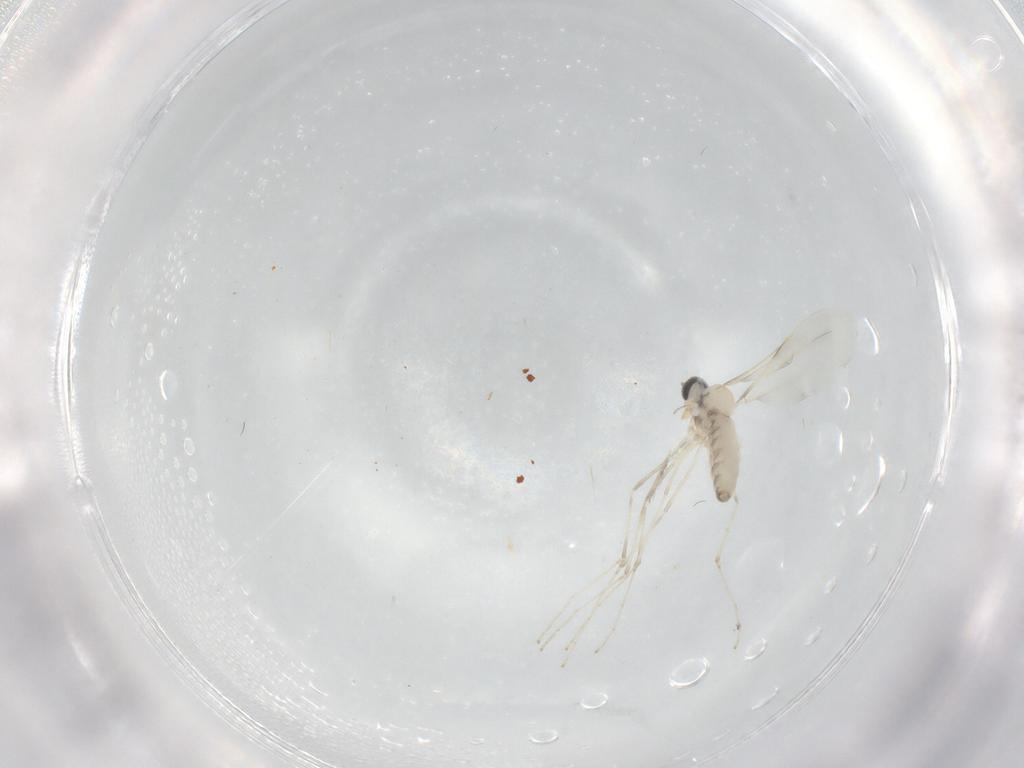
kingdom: Animalia
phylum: Arthropoda
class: Insecta
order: Diptera
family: Tabanidae
